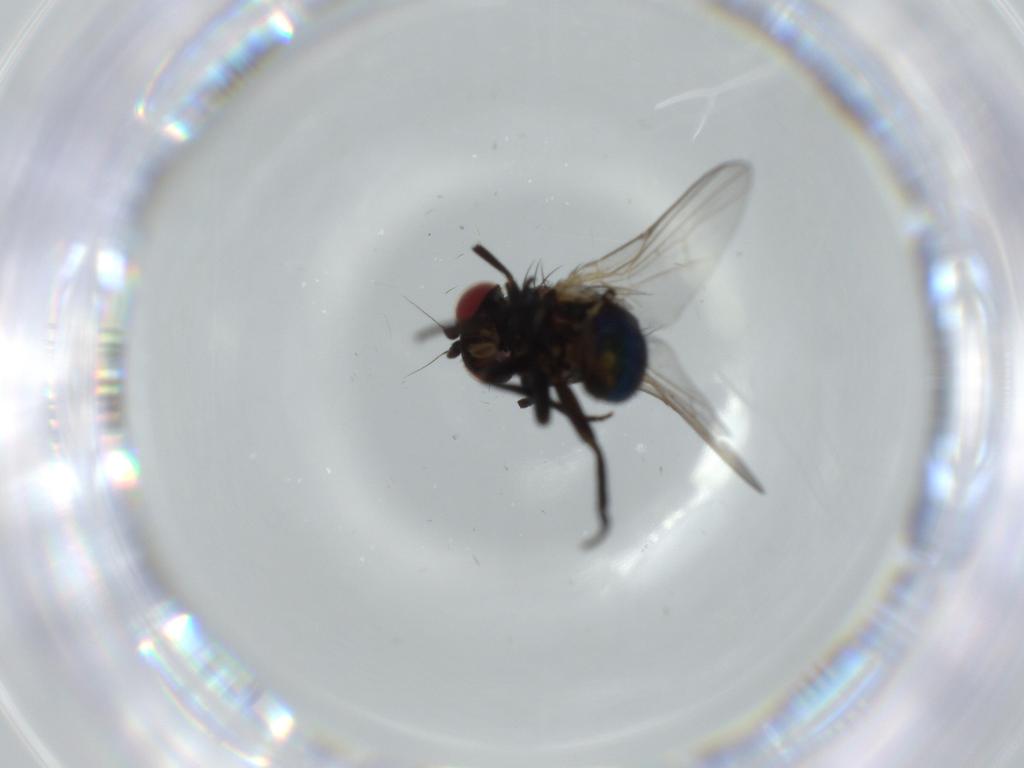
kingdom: Animalia
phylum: Arthropoda
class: Insecta
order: Diptera
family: Agromyzidae
